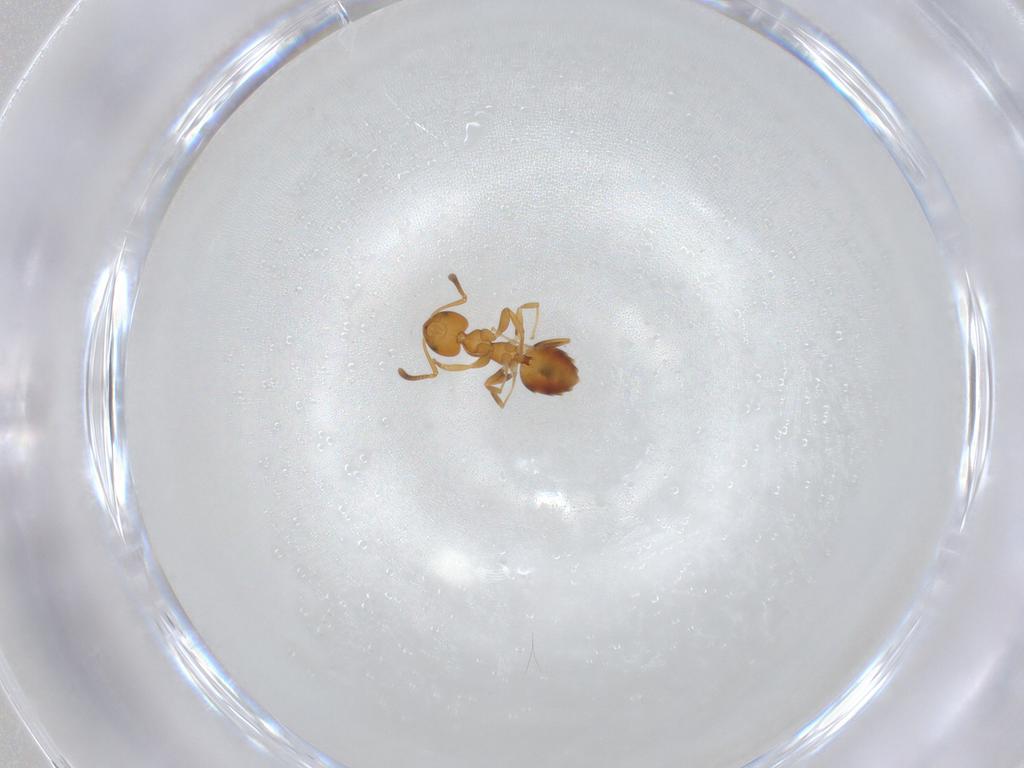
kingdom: Animalia
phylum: Arthropoda
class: Insecta
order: Hymenoptera
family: Formicidae
